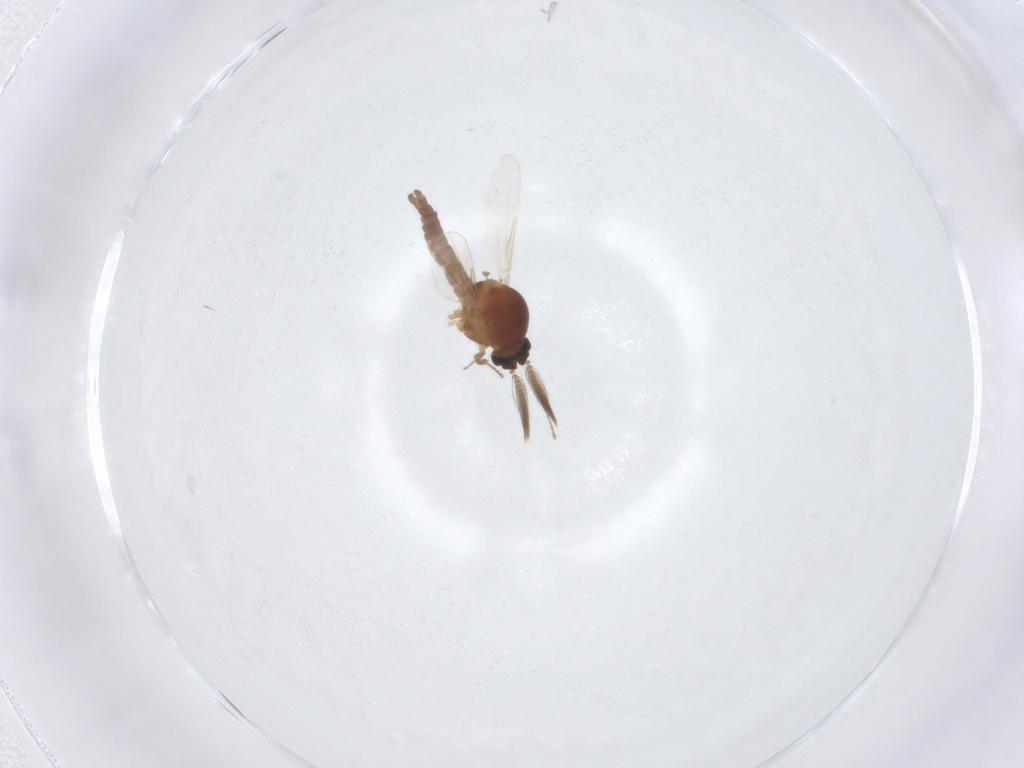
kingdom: Animalia
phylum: Arthropoda
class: Insecta
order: Diptera
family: Ceratopogonidae
